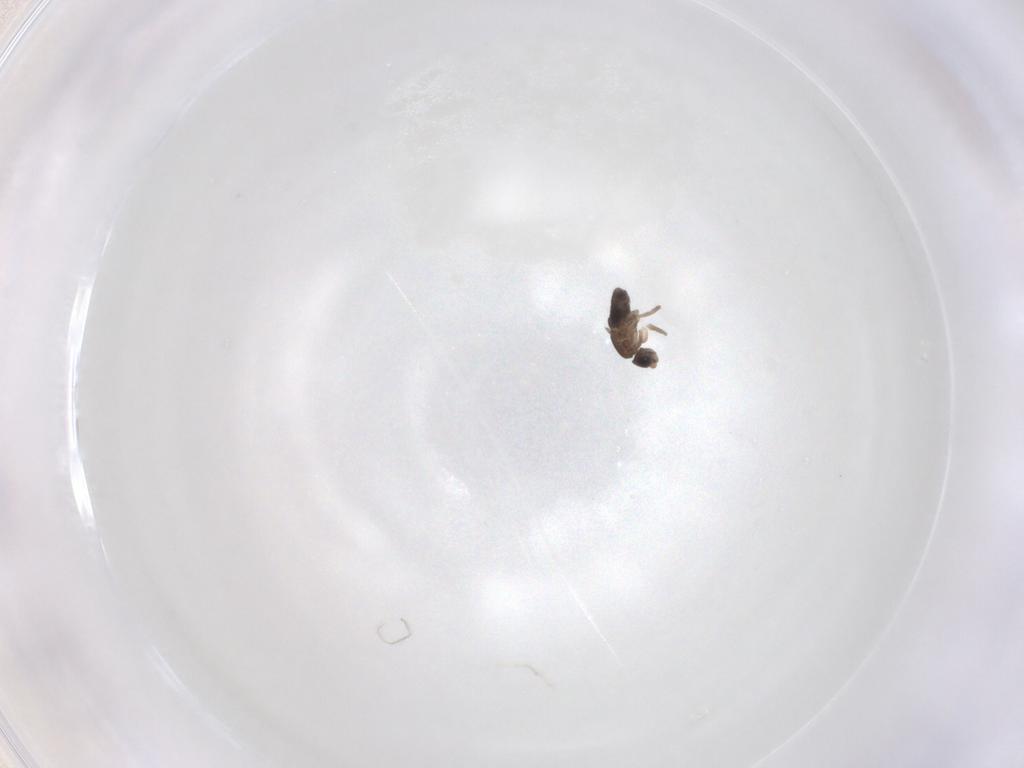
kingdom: Animalia
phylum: Arthropoda
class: Insecta
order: Diptera
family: Phoridae
